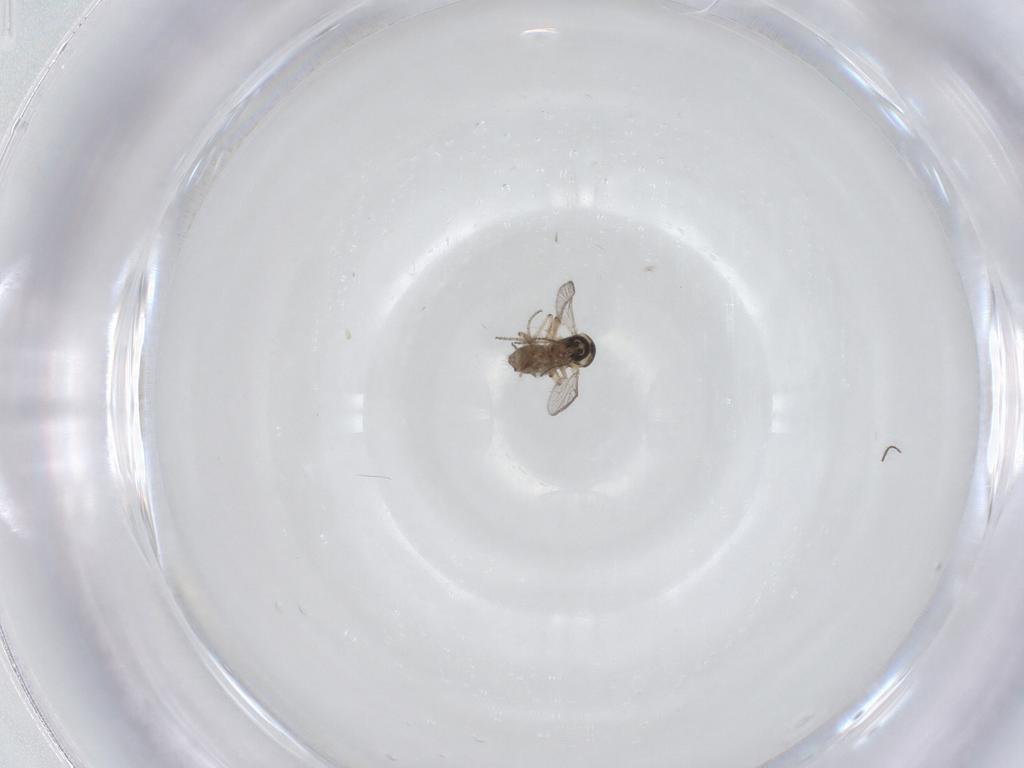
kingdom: Animalia
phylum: Arthropoda
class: Insecta
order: Diptera
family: Ceratopogonidae
